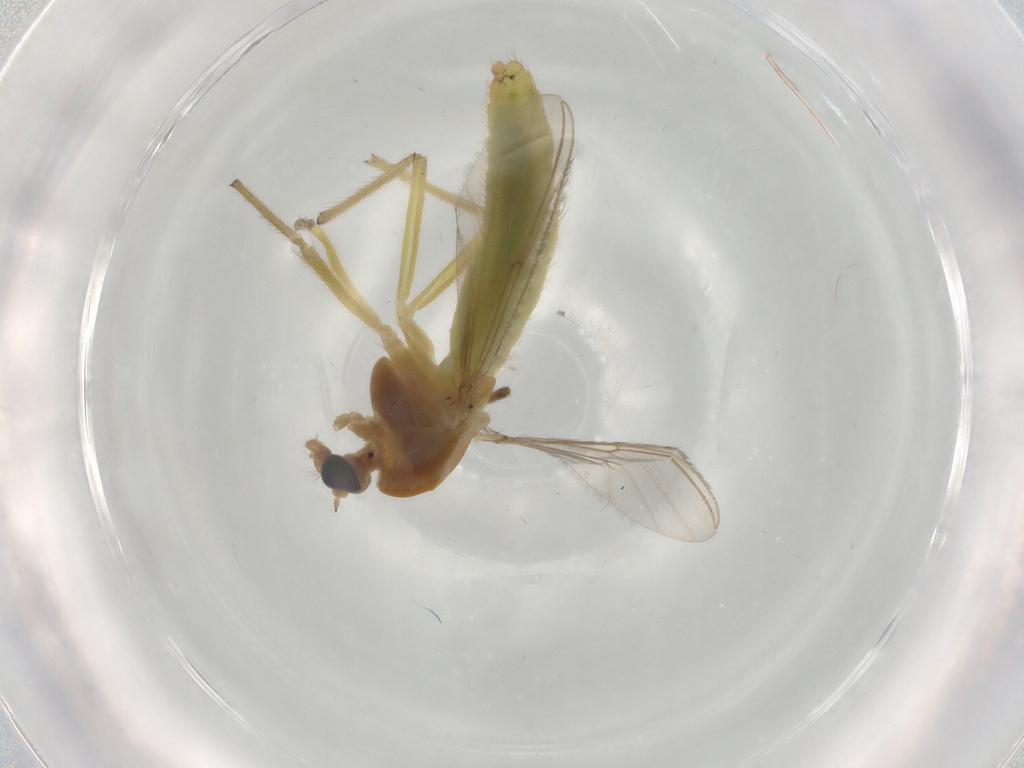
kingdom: Animalia
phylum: Arthropoda
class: Insecta
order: Diptera
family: Chironomidae
